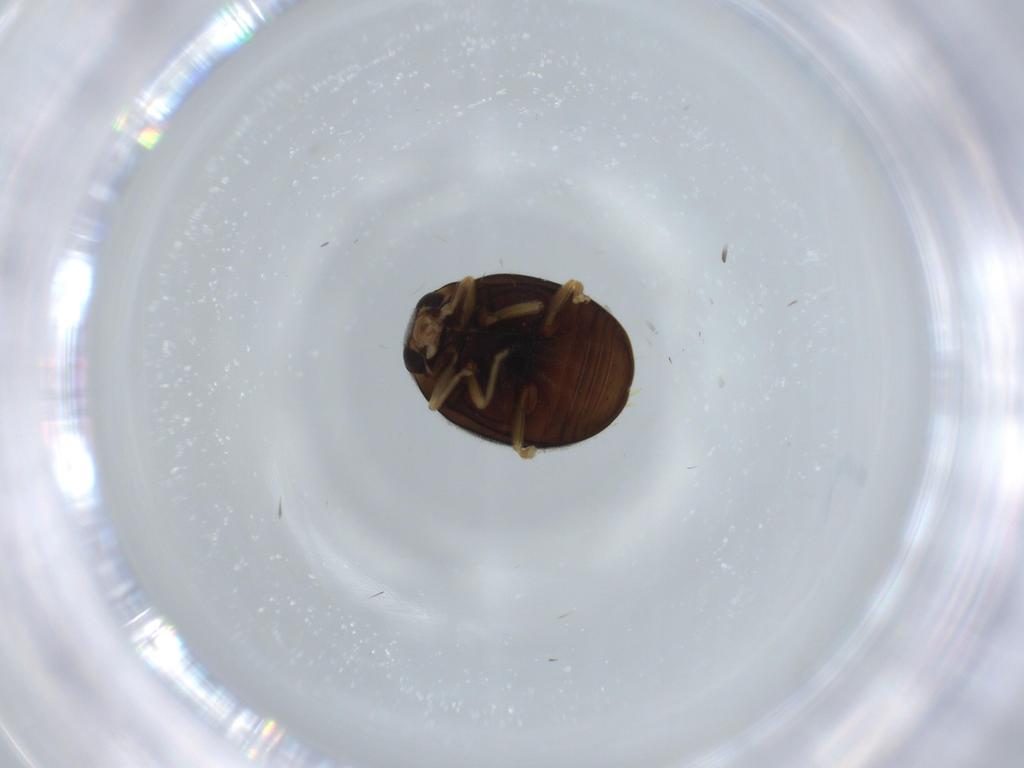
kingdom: Animalia
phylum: Arthropoda
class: Insecta
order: Coleoptera
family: Coccinellidae
